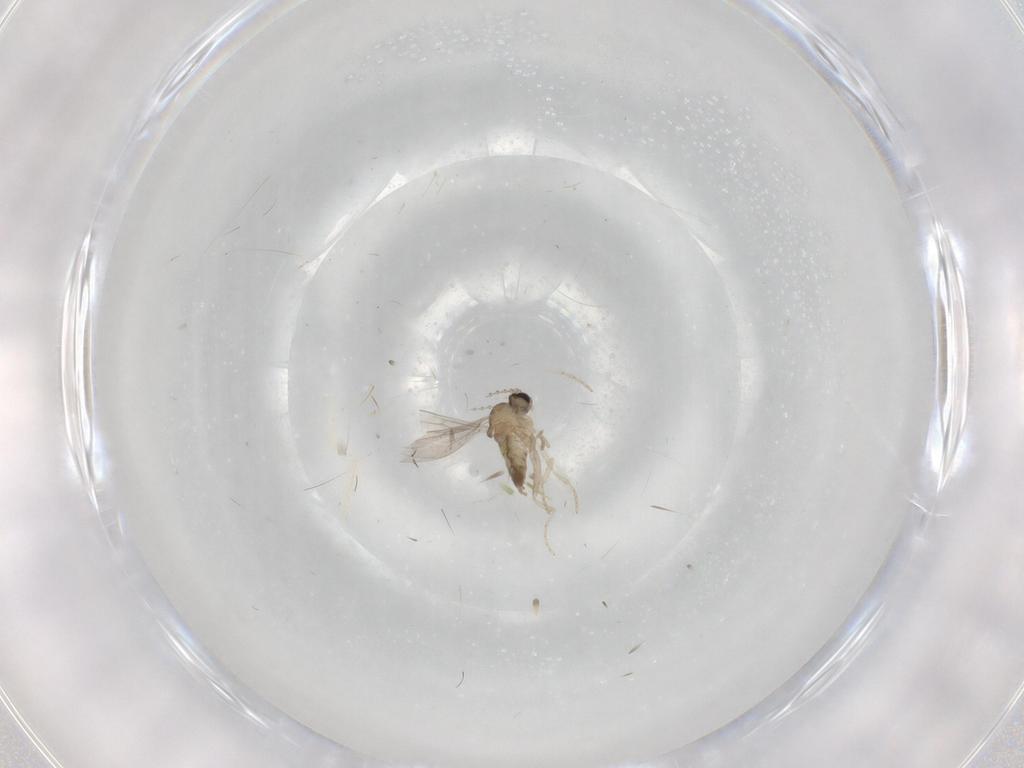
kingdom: Animalia
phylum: Arthropoda
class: Insecta
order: Diptera
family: Cecidomyiidae
